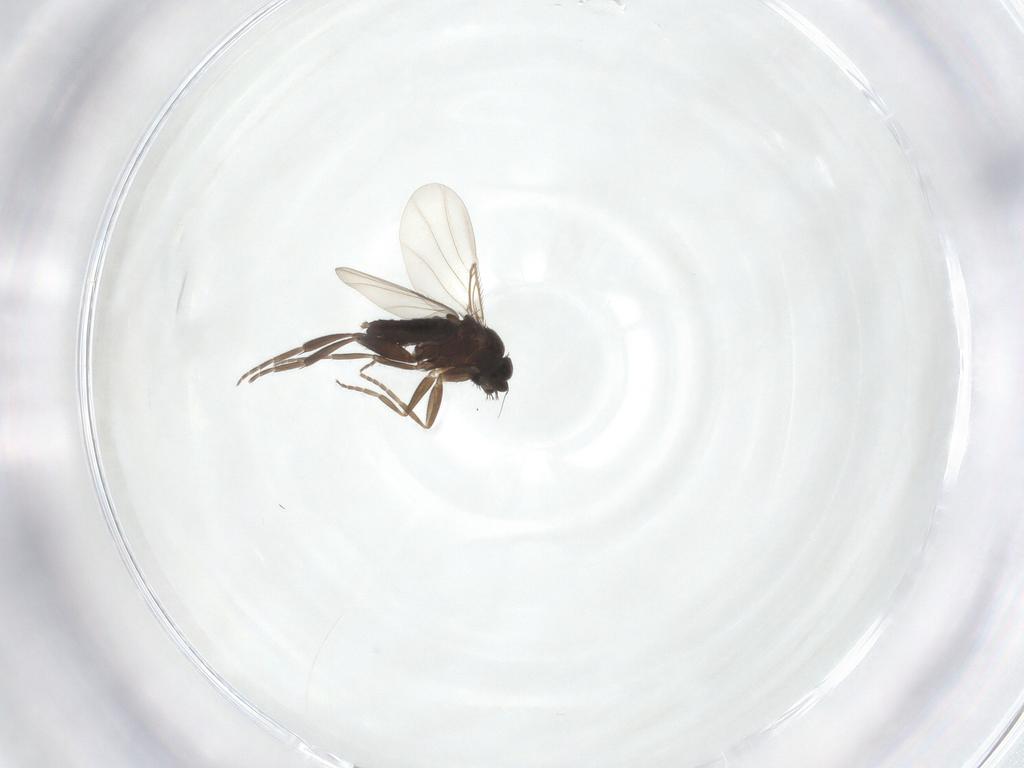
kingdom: Animalia
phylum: Arthropoda
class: Insecta
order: Diptera
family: Phoridae
